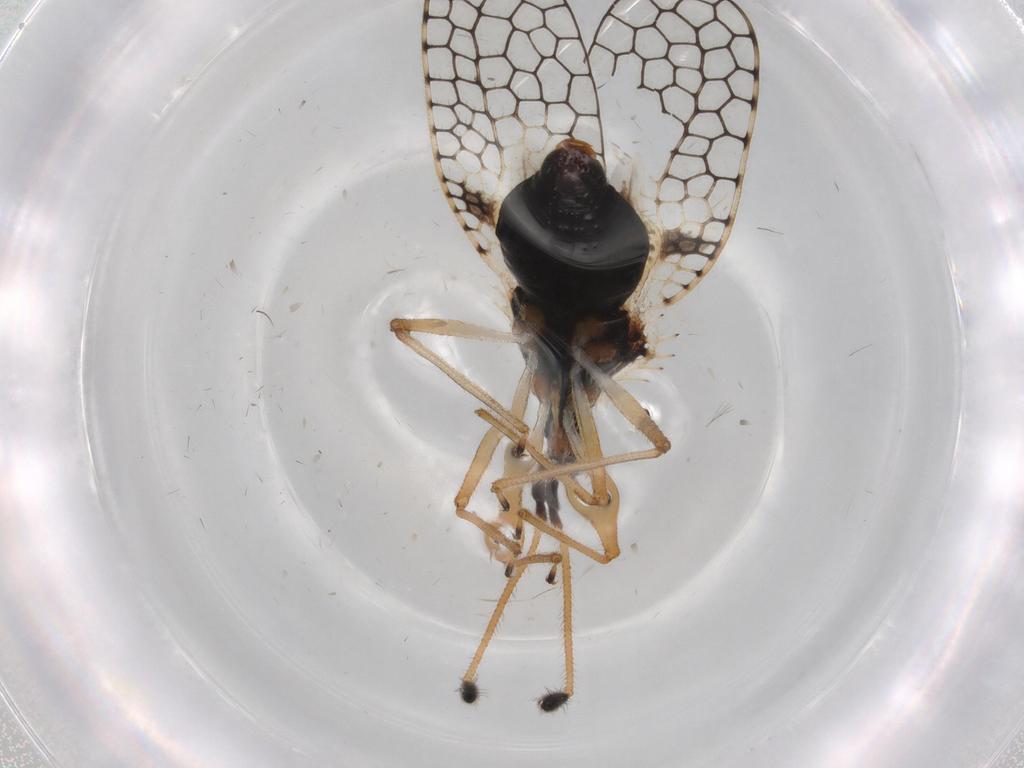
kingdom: Animalia
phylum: Arthropoda
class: Insecta
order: Hemiptera
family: Tingidae
